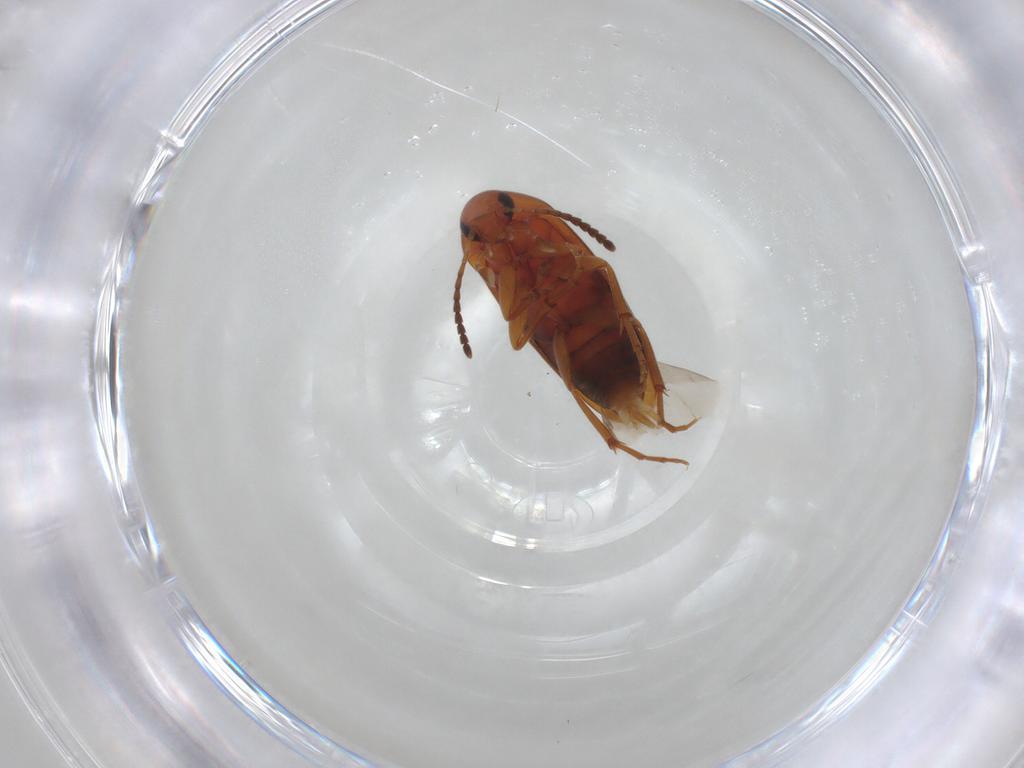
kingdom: Animalia
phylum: Arthropoda
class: Insecta
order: Coleoptera
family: Scraptiidae
